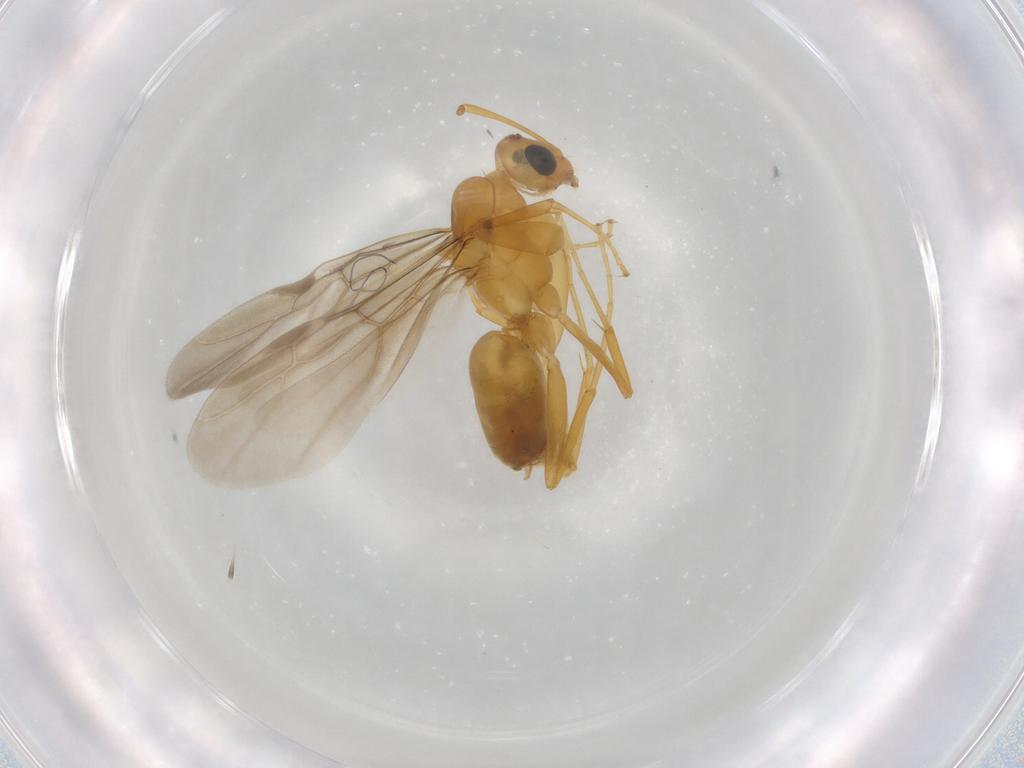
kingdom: Animalia
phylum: Arthropoda
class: Insecta
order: Hymenoptera
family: Formicidae
